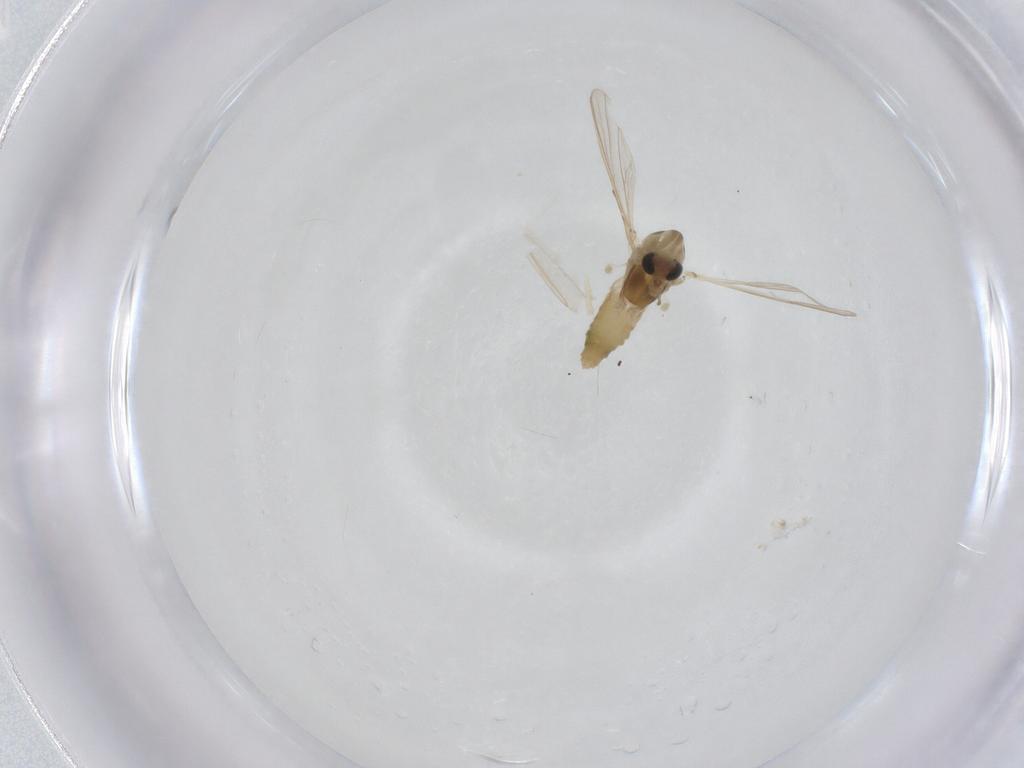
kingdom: Animalia
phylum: Arthropoda
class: Insecta
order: Diptera
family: Chironomidae
